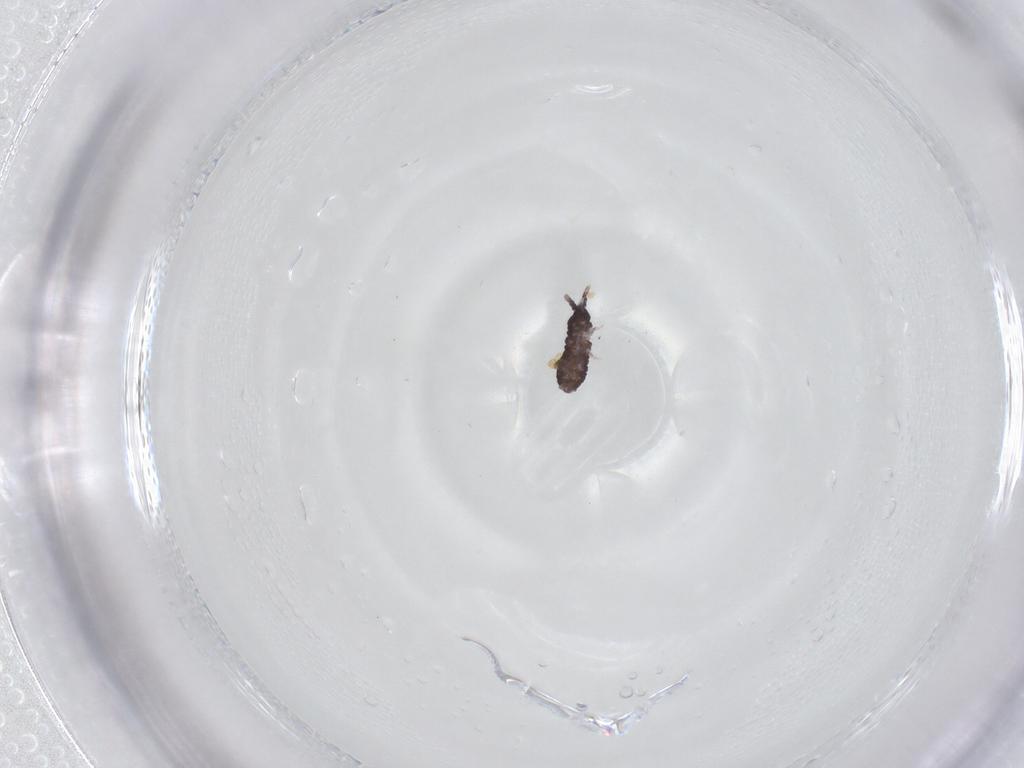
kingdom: Animalia
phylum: Arthropoda
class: Collembola
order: Poduromorpha
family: Neanuridae
